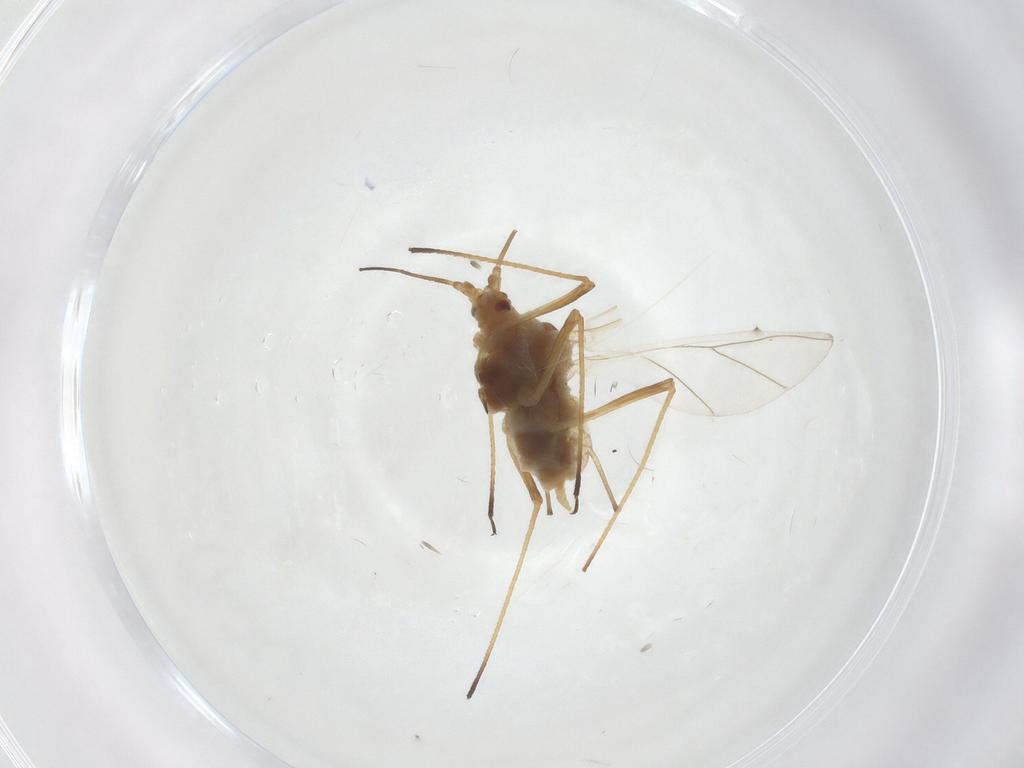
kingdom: Animalia
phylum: Arthropoda
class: Insecta
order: Hemiptera
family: Aphididae
